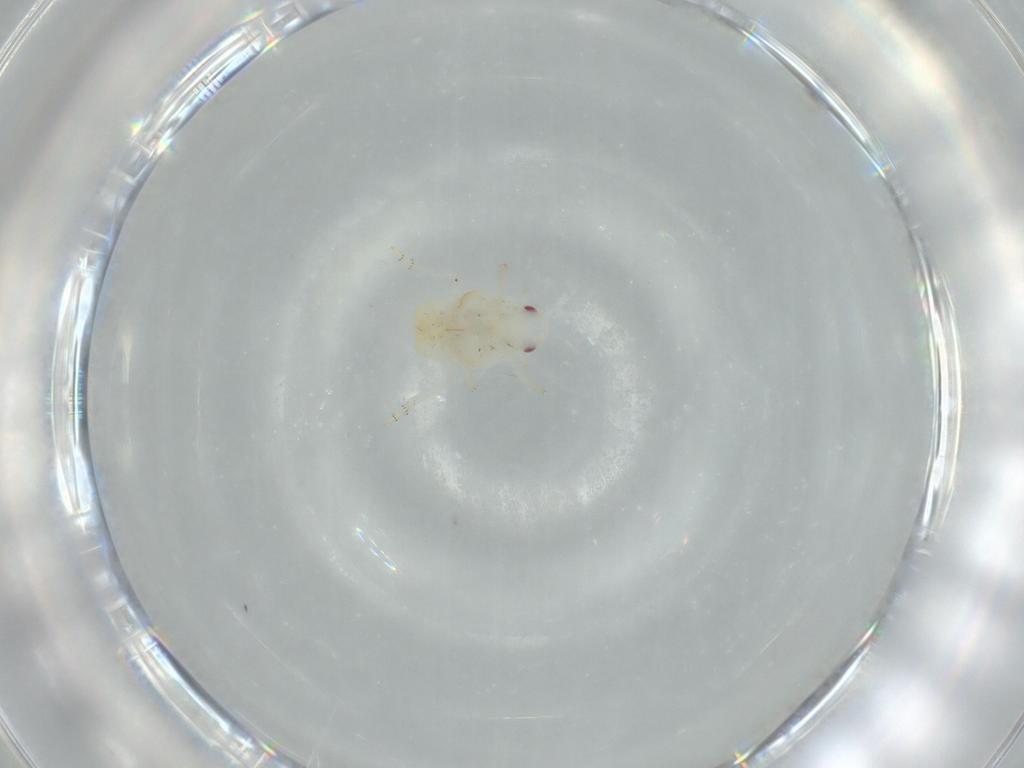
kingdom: Animalia
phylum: Arthropoda
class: Insecta
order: Hemiptera
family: Flatidae
